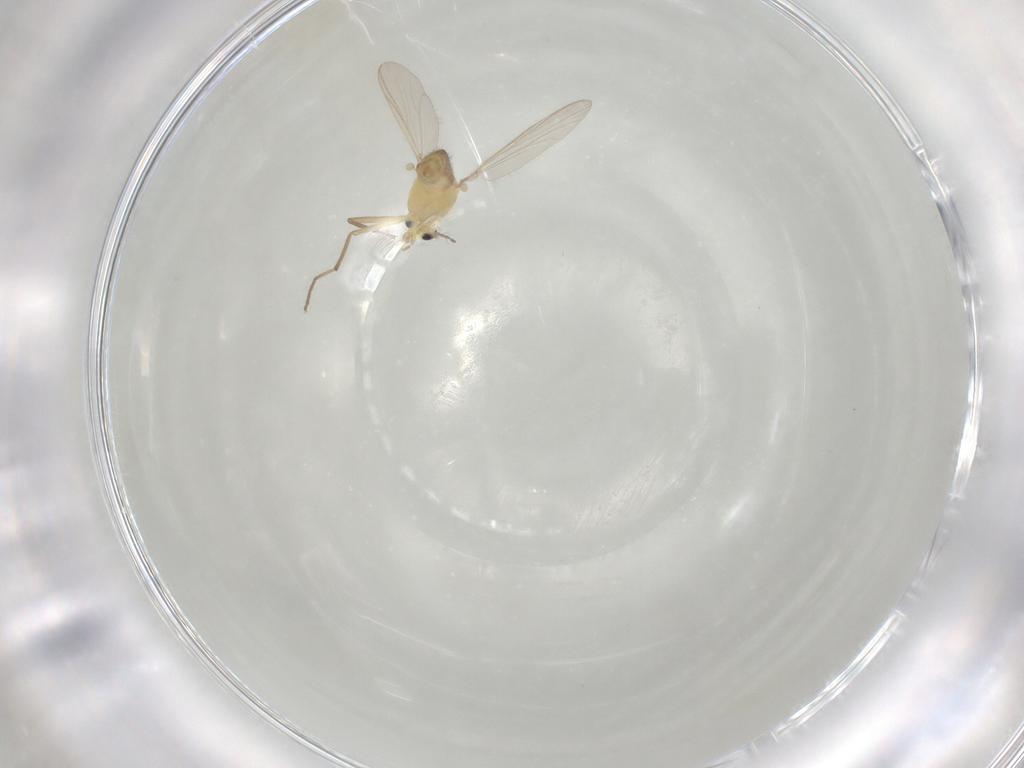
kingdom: Animalia
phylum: Arthropoda
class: Insecta
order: Diptera
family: Chironomidae
